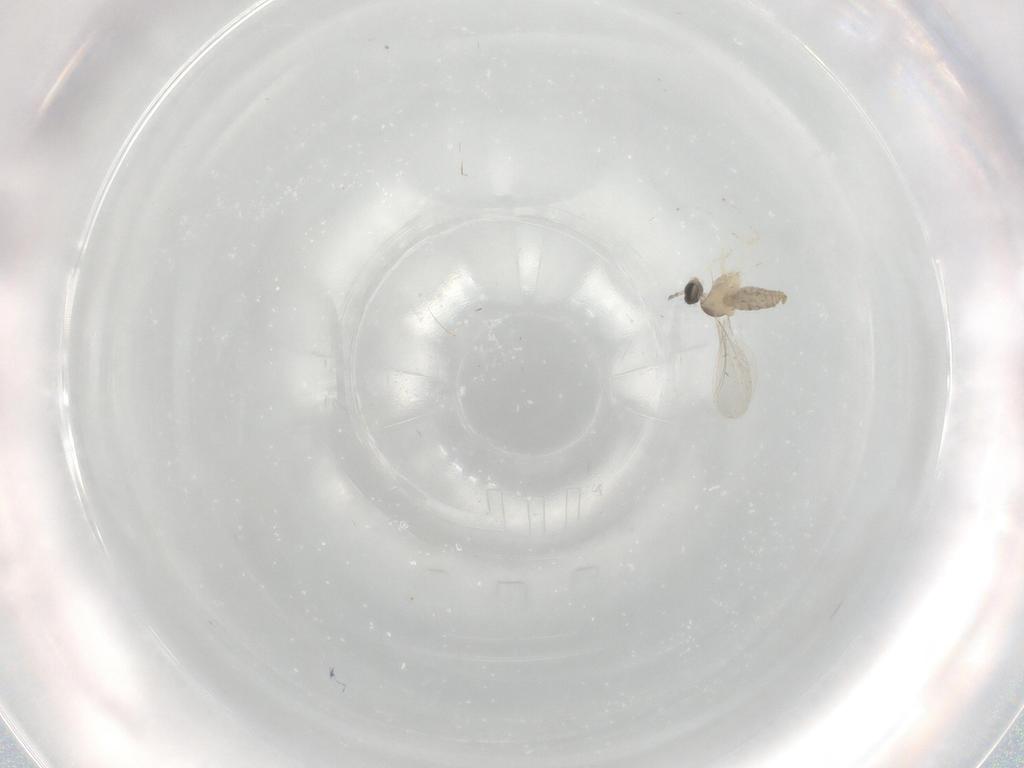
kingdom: Animalia
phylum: Arthropoda
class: Insecta
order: Diptera
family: Cecidomyiidae
